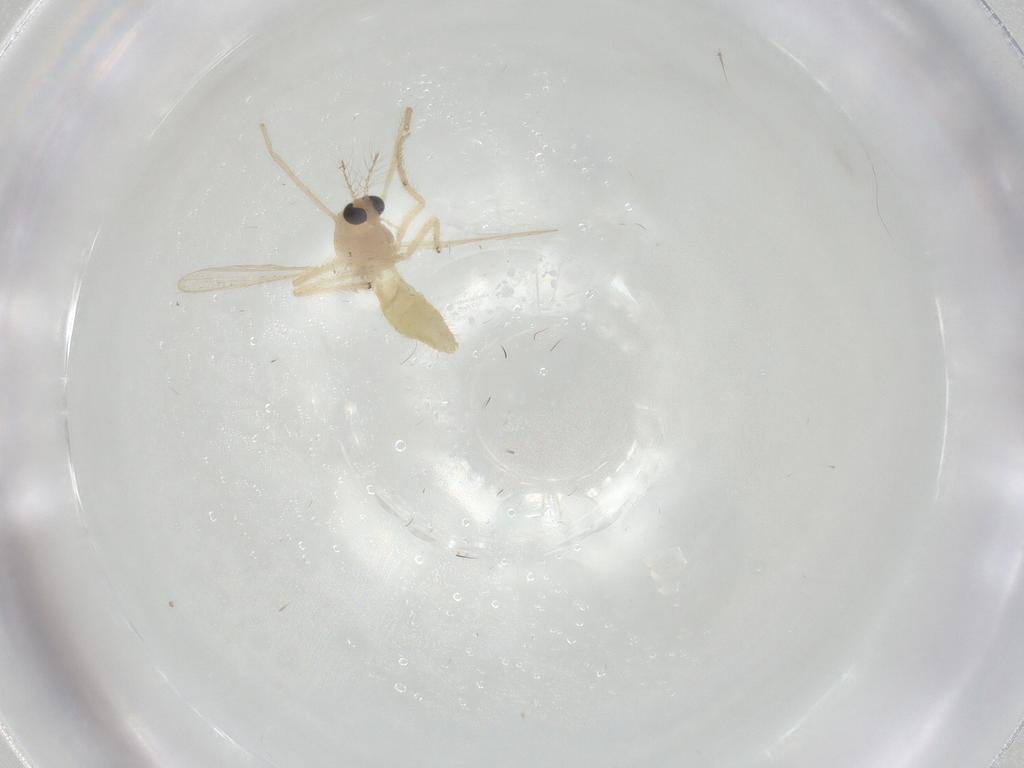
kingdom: Animalia
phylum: Arthropoda
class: Insecta
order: Diptera
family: Chironomidae
